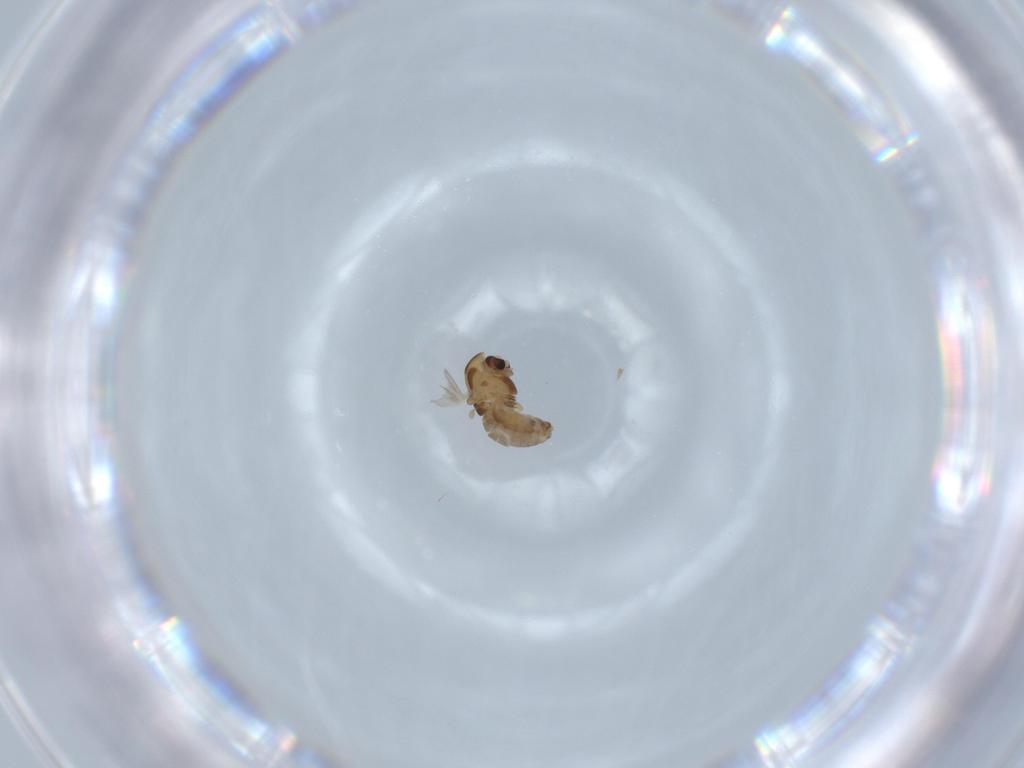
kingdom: Animalia
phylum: Arthropoda
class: Insecta
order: Diptera
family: Chironomidae
